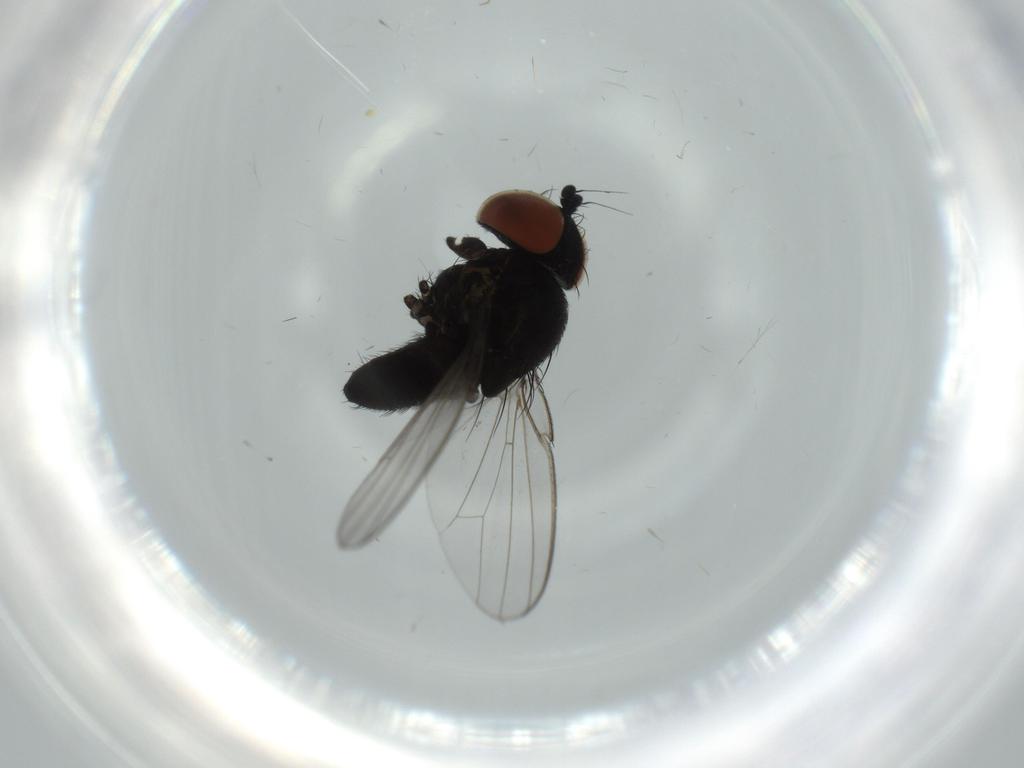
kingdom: Animalia
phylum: Arthropoda
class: Insecta
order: Diptera
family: Milichiidae
